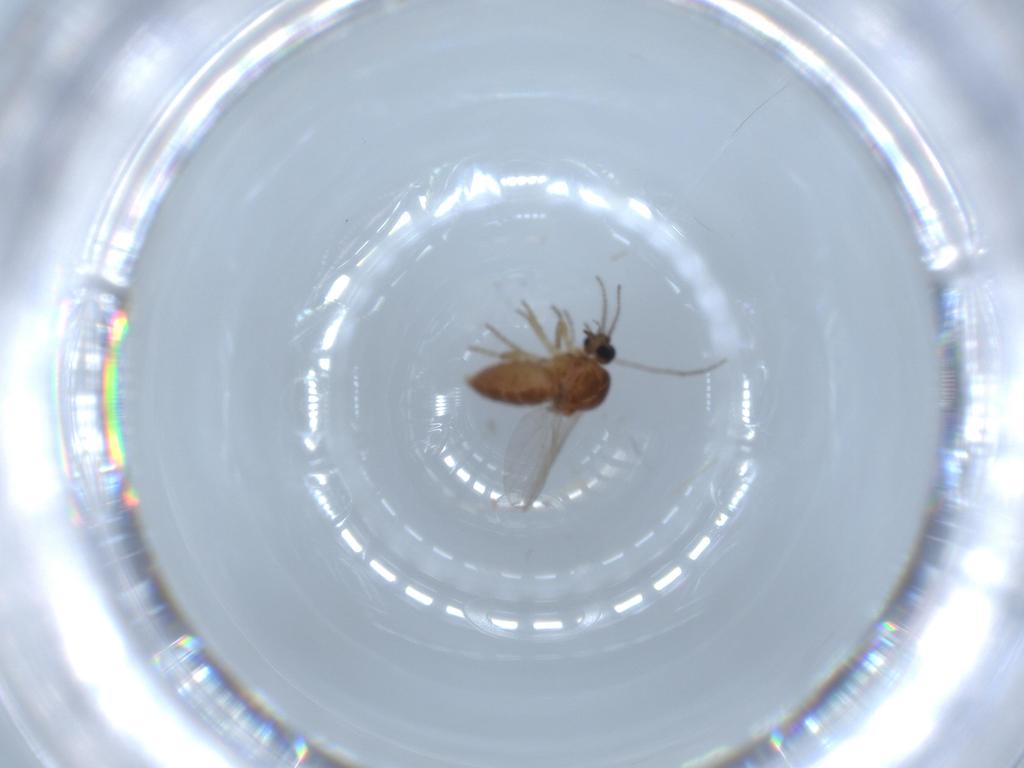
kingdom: Animalia
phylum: Arthropoda
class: Insecta
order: Diptera
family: Ceratopogonidae
